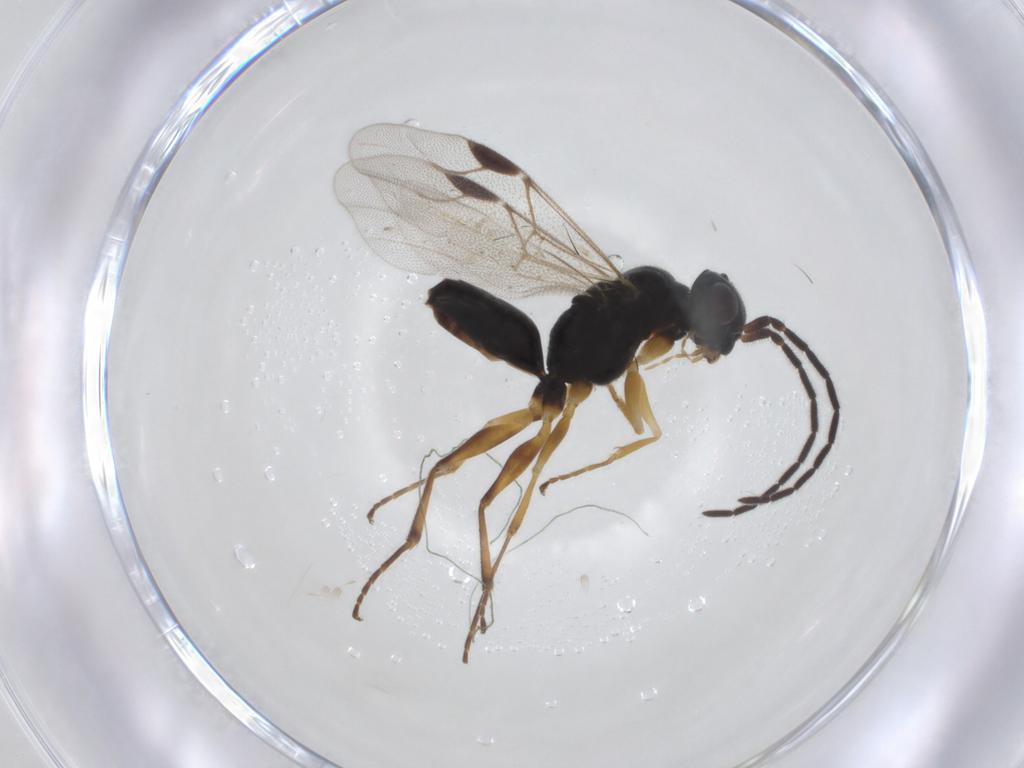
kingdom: Animalia
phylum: Arthropoda
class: Insecta
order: Hymenoptera
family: Dryinidae
